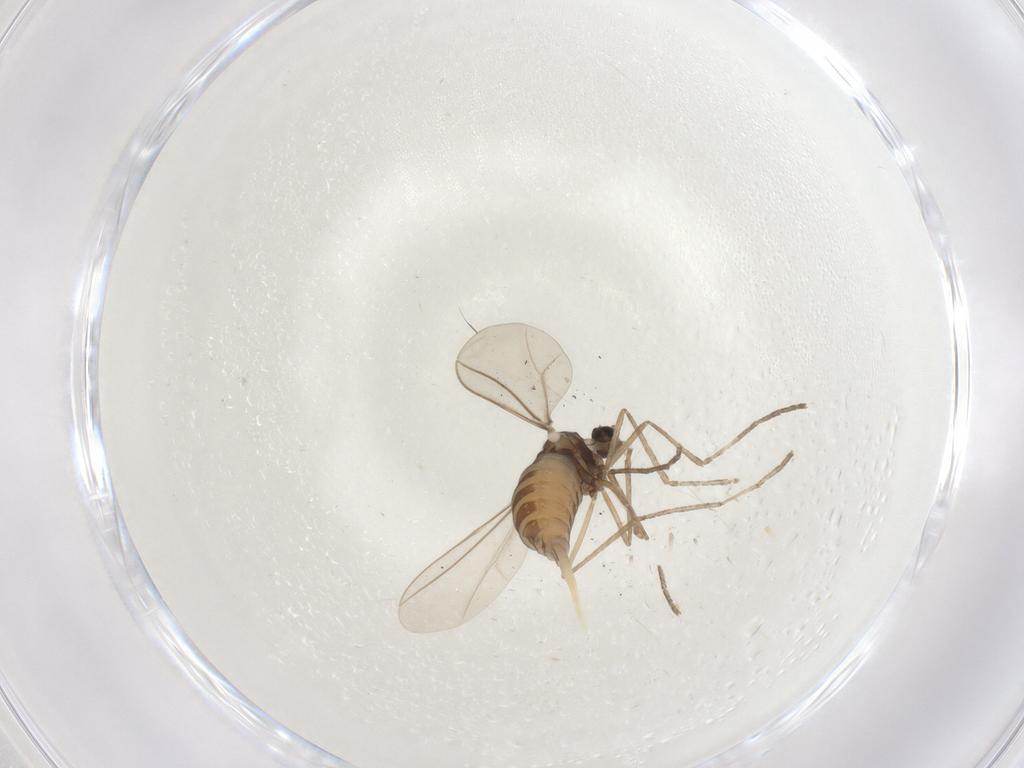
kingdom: Animalia
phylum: Arthropoda
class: Insecta
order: Diptera
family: Cecidomyiidae
